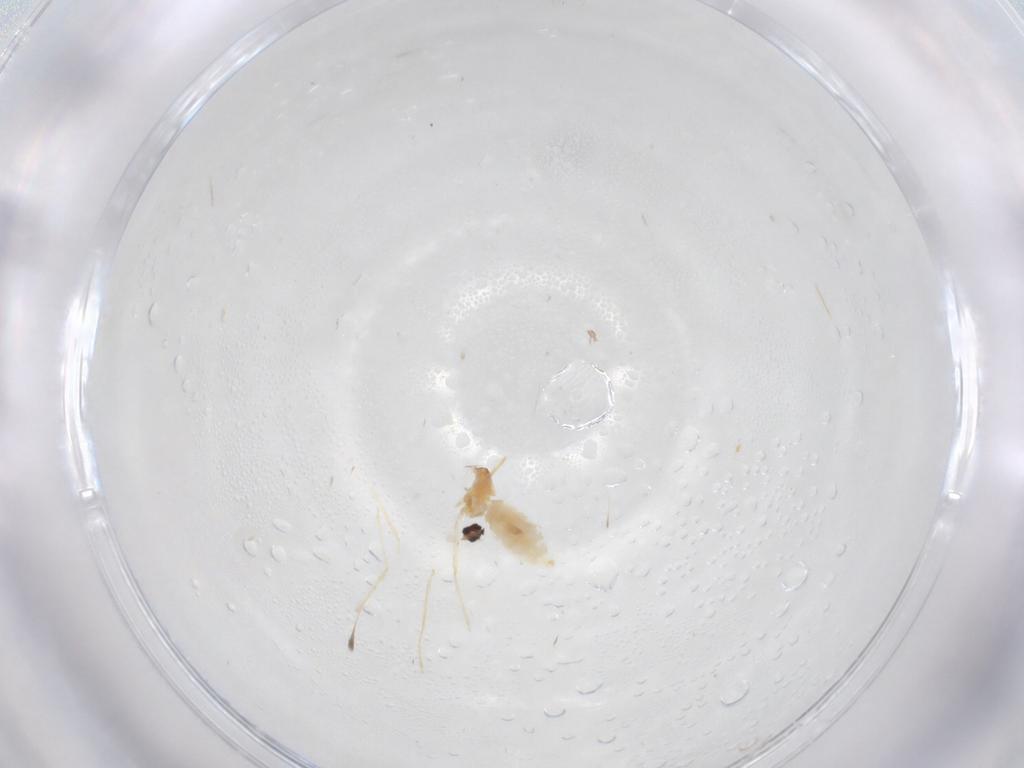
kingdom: Animalia
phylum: Arthropoda
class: Insecta
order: Diptera
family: Cecidomyiidae
